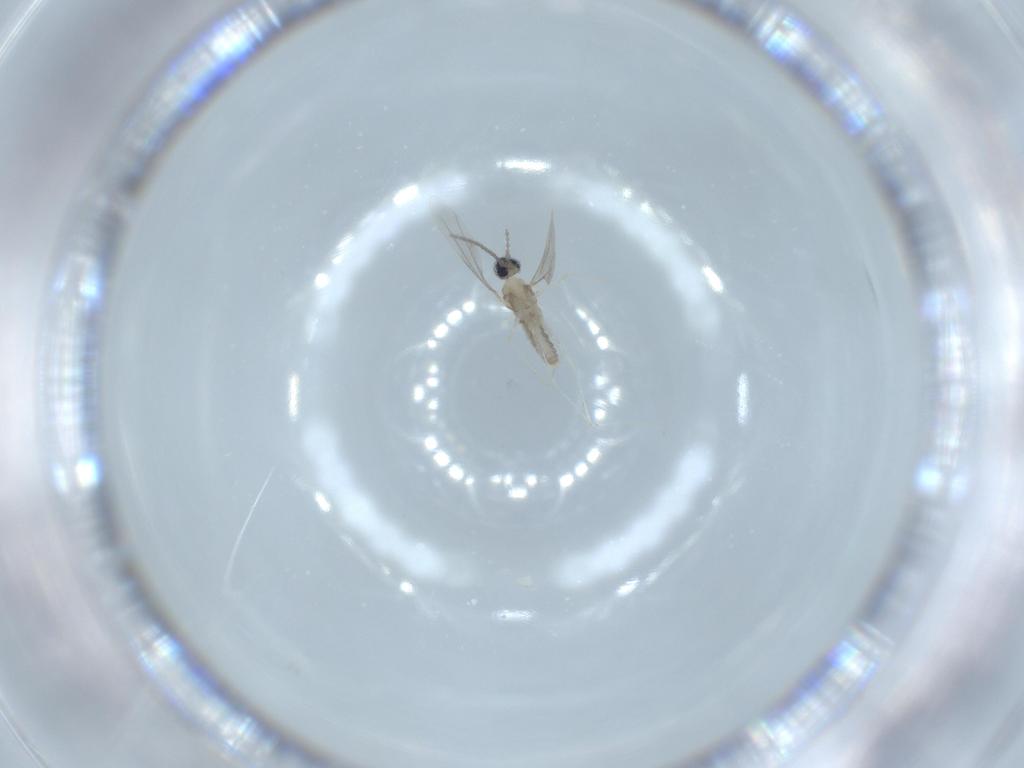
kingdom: Animalia
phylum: Arthropoda
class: Insecta
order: Diptera
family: Cecidomyiidae
